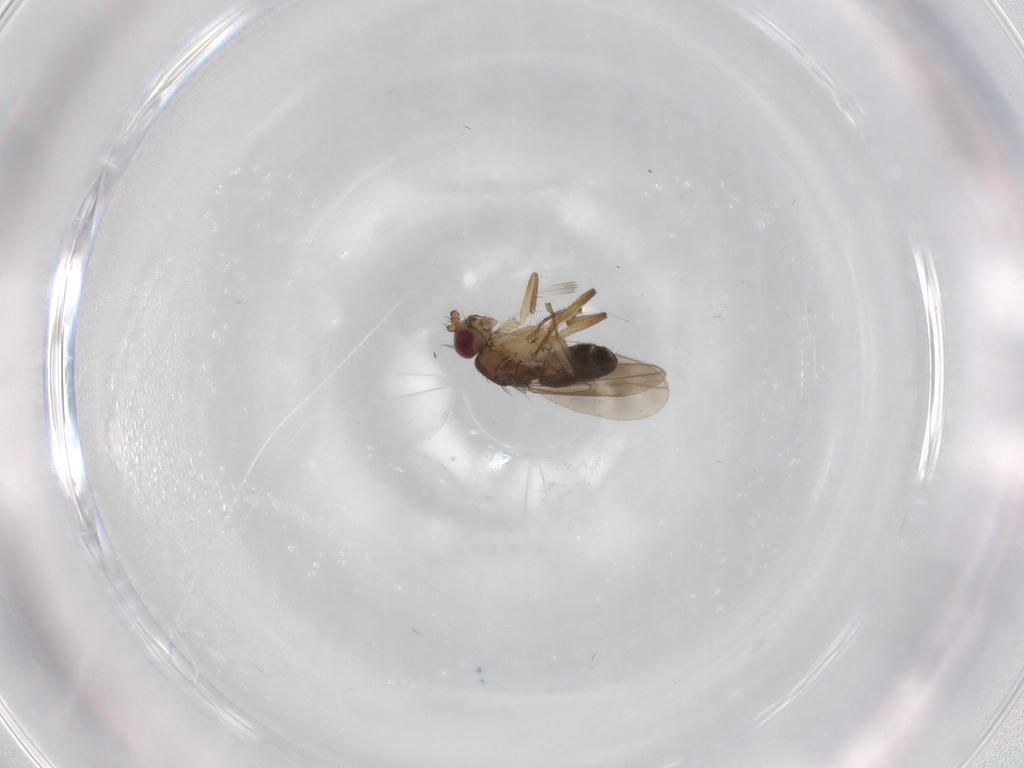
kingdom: Animalia
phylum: Arthropoda
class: Insecta
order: Diptera
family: Sphaeroceridae
